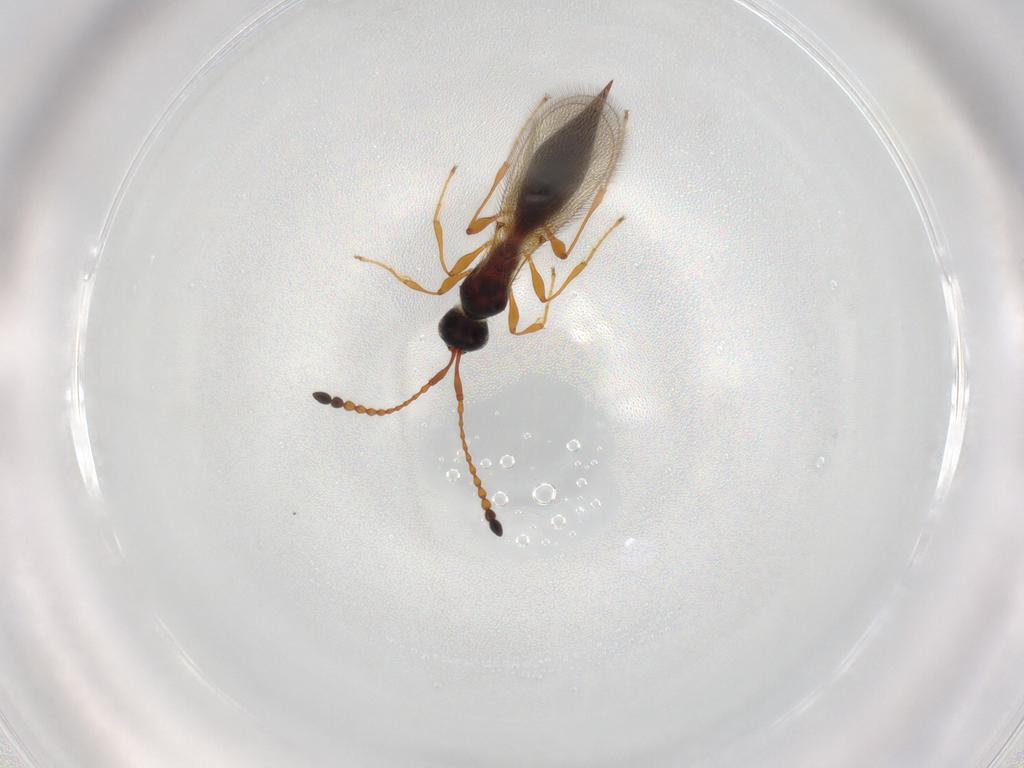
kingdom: Animalia
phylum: Arthropoda
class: Insecta
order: Hymenoptera
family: Diapriidae
